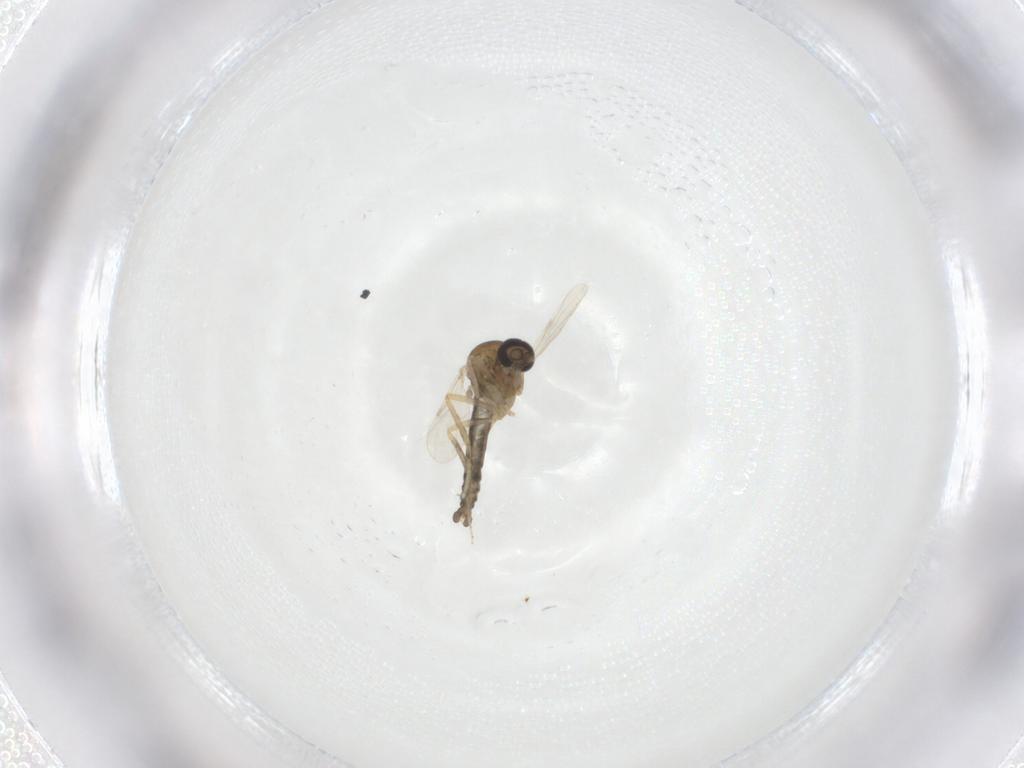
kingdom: Animalia
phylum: Arthropoda
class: Insecta
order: Diptera
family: Ceratopogonidae
